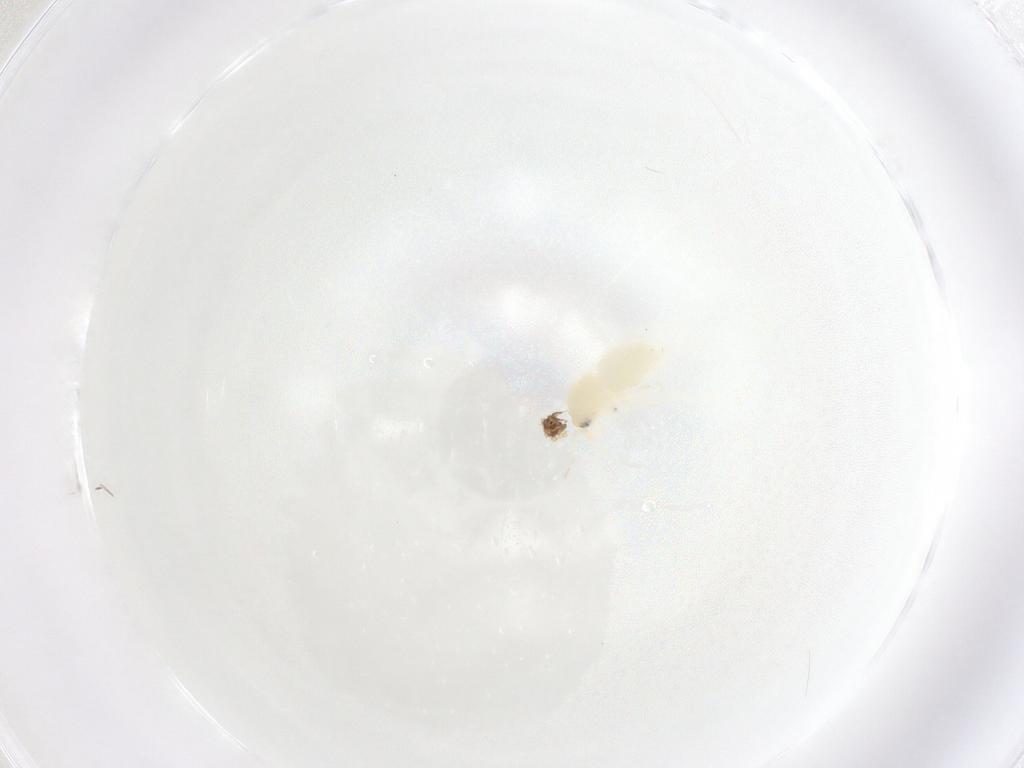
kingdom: Animalia
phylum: Arthropoda
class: Insecta
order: Hemiptera
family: Aleyrodidae
